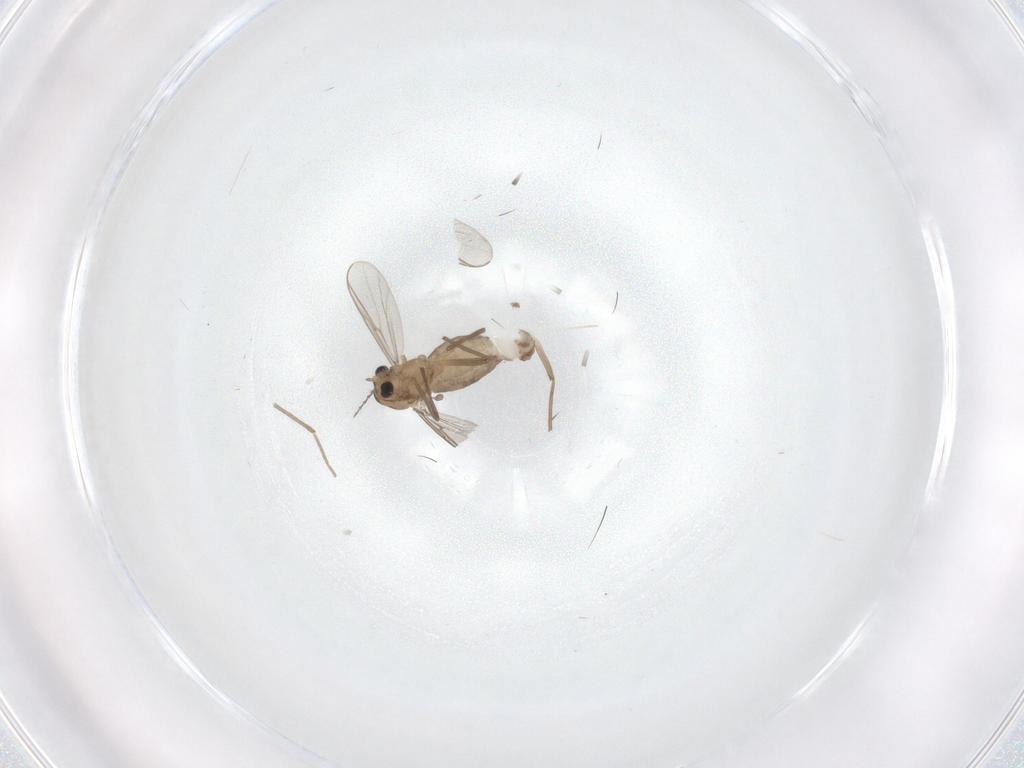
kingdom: Animalia
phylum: Arthropoda
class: Insecta
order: Diptera
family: Chironomidae
